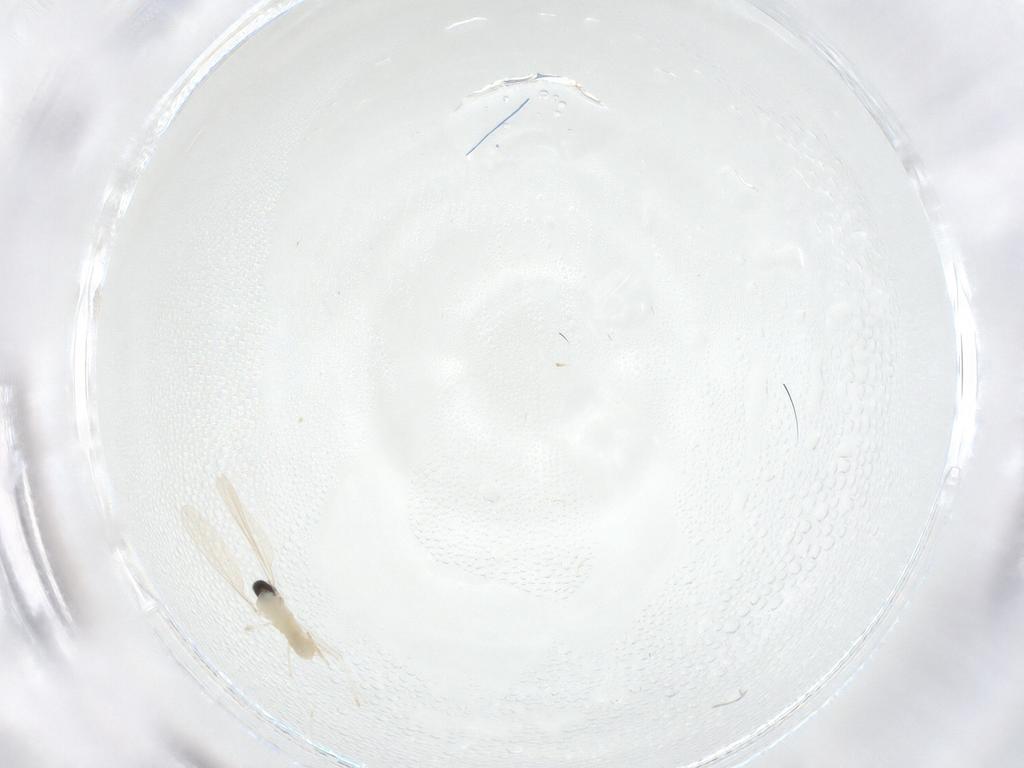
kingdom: Animalia
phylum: Arthropoda
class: Insecta
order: Diptera
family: Cecidomyiidae
